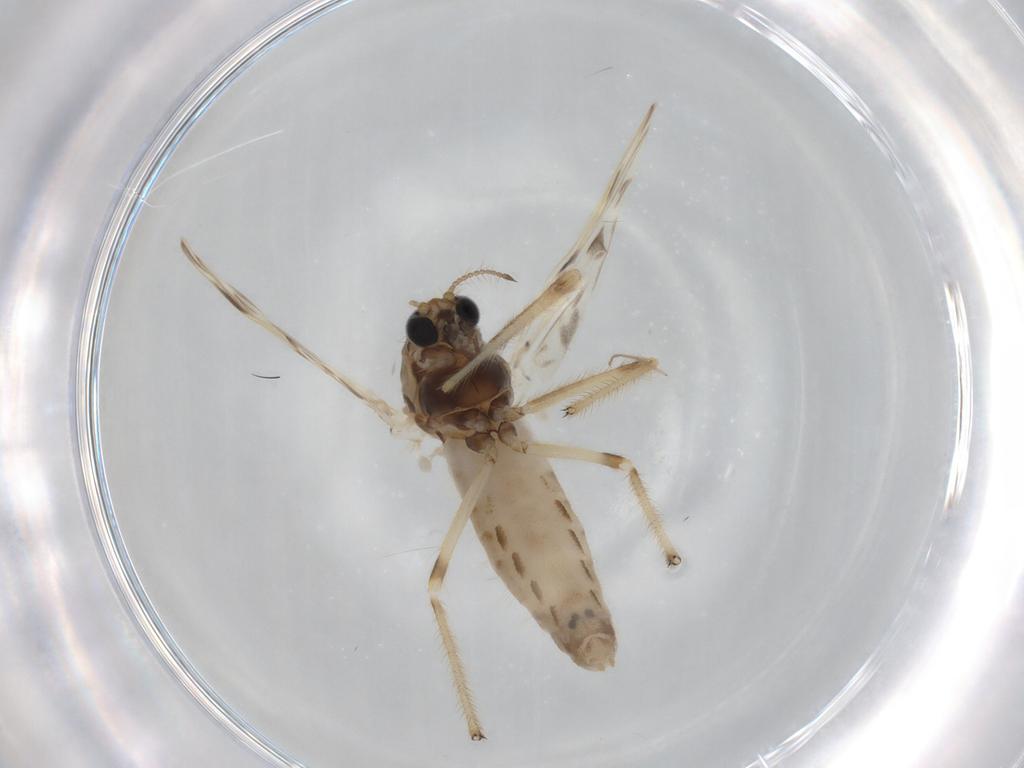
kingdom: Animalia
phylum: Arthropoda
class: Insecta
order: Diptera
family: Chironomidae
